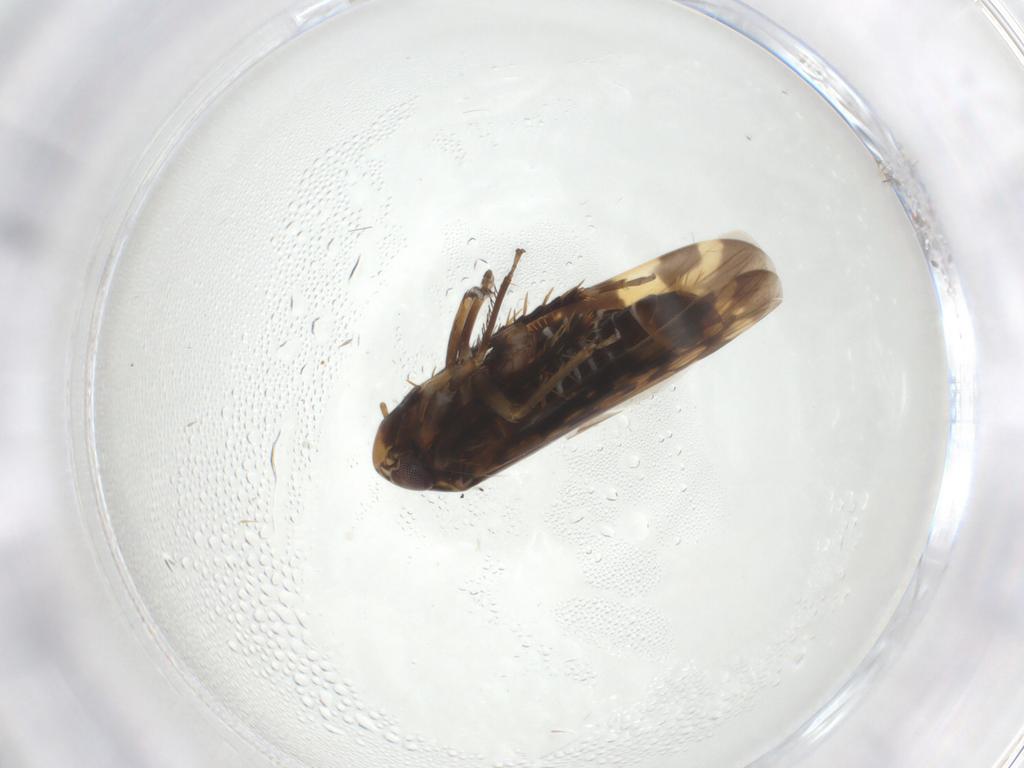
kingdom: Animalia
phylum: Arthropoda
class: Insecta
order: Hemiptera
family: Cicadellidae
